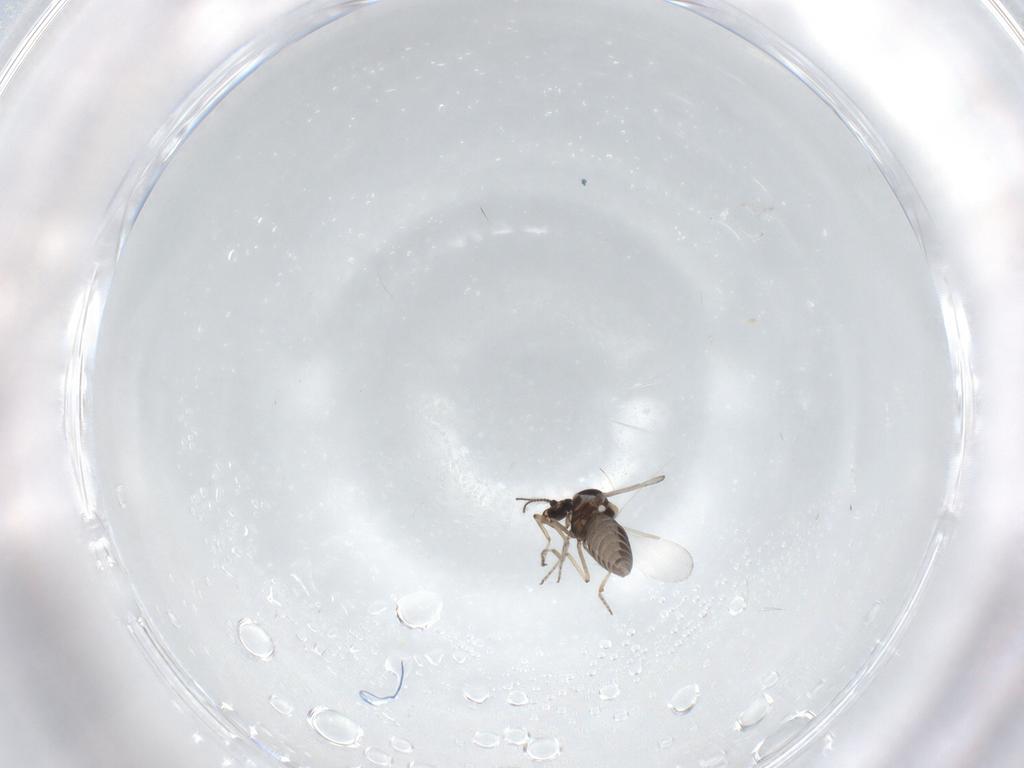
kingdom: Animalia
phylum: Arthropoda
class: Insecta
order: Diptera
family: Ceratopogonidae
